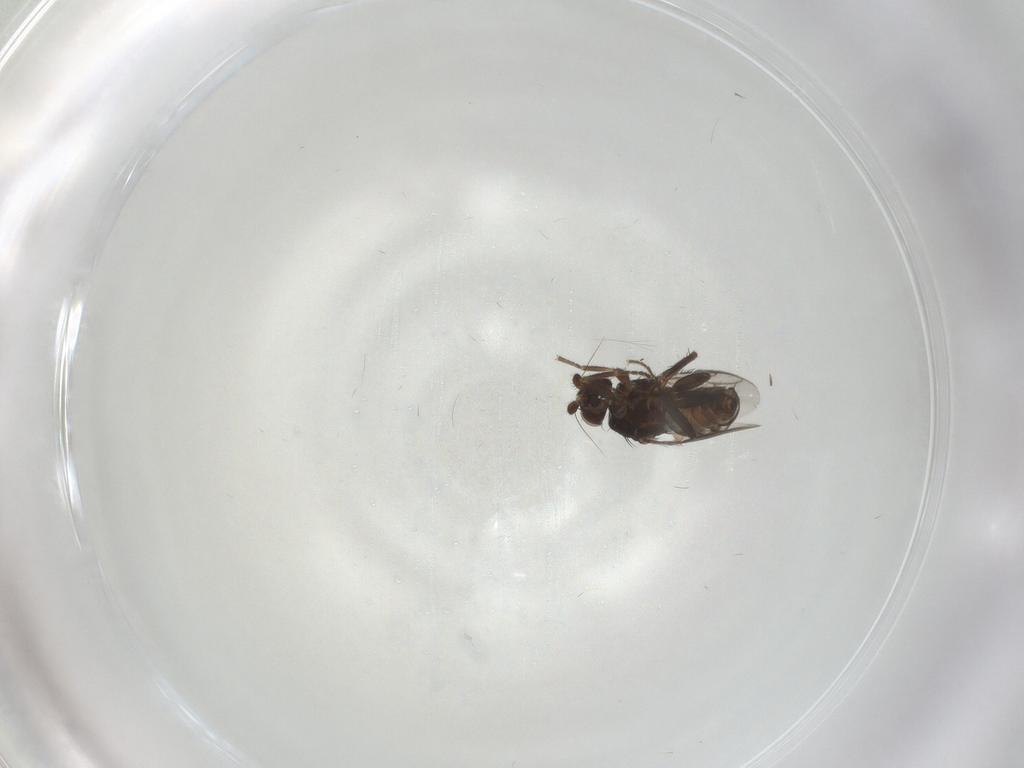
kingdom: Animalia
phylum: Arthropoda
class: Insecta
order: Diptera
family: Sphaeroceridae
